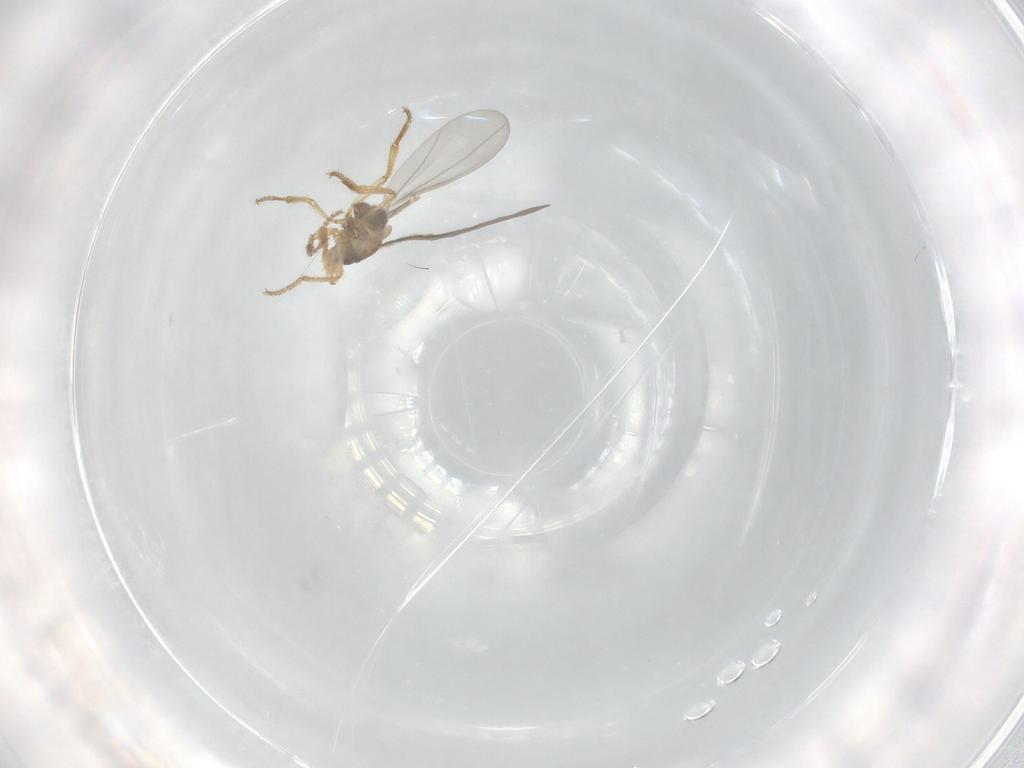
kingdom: Animalia
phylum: Arthropoda
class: Insecta
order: Diptera
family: Phoridae
